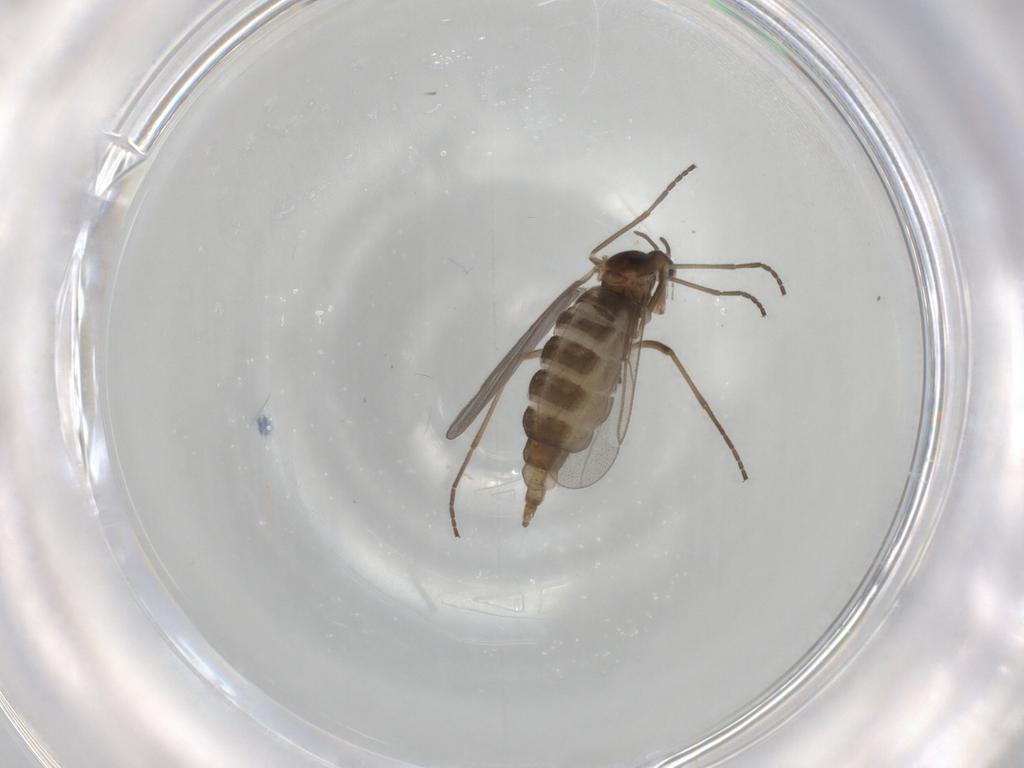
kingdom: Animalia
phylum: Arthropoda
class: Insecta
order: Diptera
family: Cecidomyiidae
